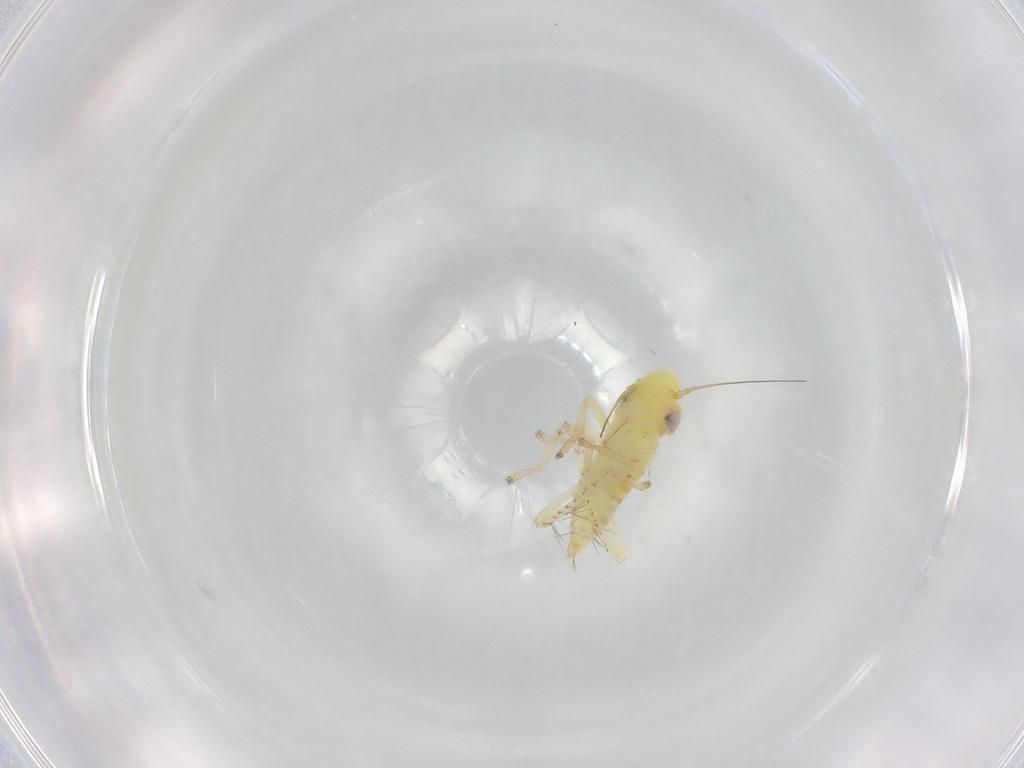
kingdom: Animalia
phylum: Arthropoda
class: Insecta
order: Hemiptera
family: Cicadellidae
